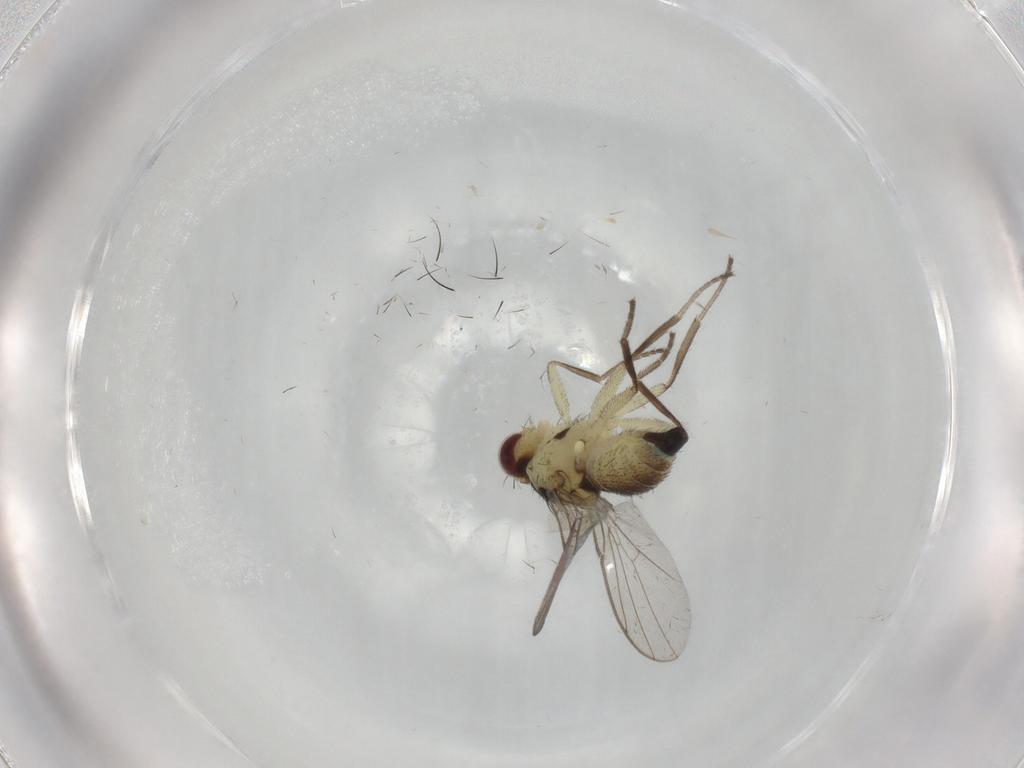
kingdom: Animalia
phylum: Arthropoda
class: Insecta
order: Diptera
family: Agromyzidae
